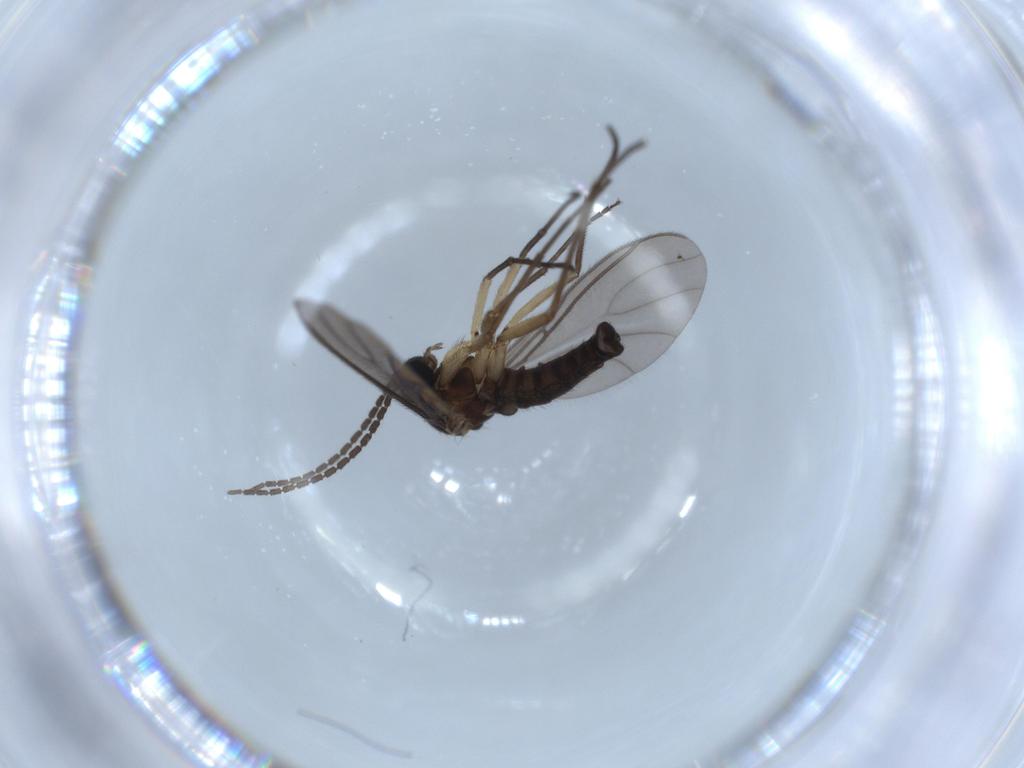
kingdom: Animalia
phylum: Arthropoda
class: Insecta
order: Diptera
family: Sciaridae
